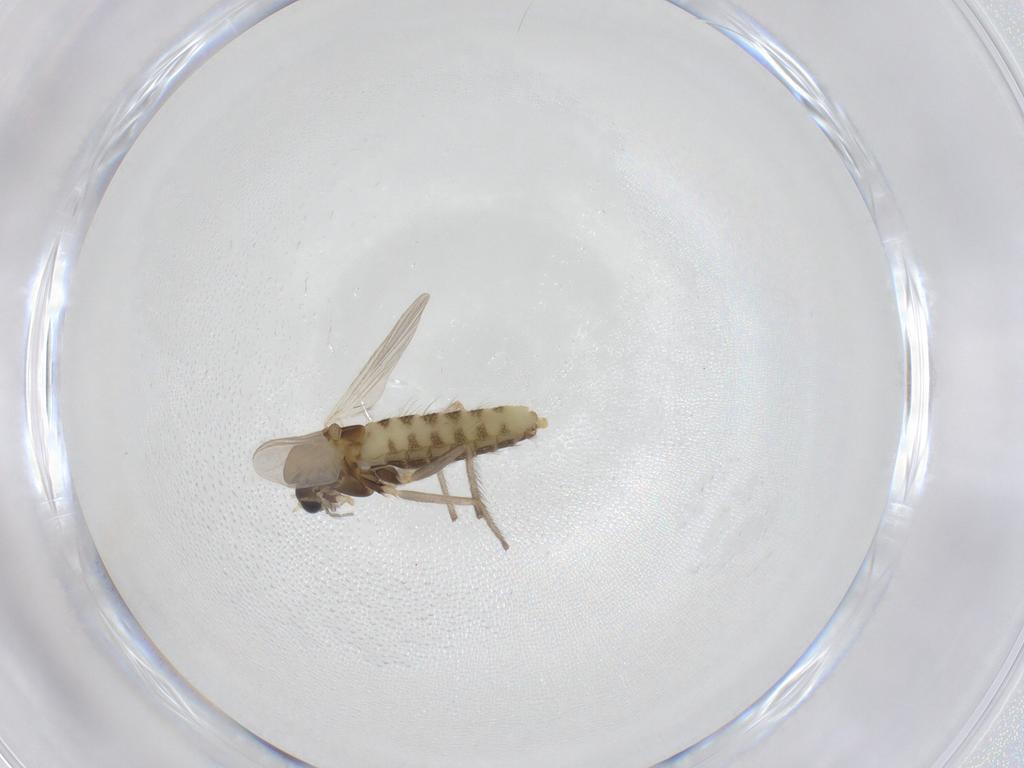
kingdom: Animalia
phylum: Arthropoda
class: Insecta
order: Diptera
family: Chironomidae
